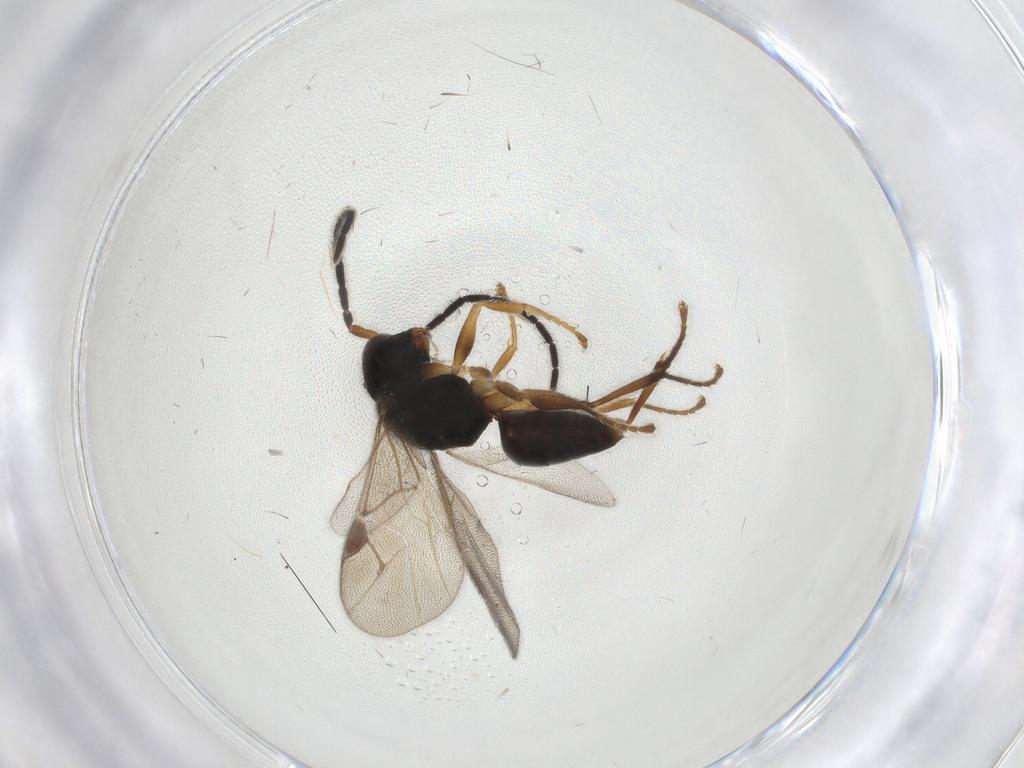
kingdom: Animalia
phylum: Arthropoda
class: Insecta
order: Hymenoptera
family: Dryinidae
